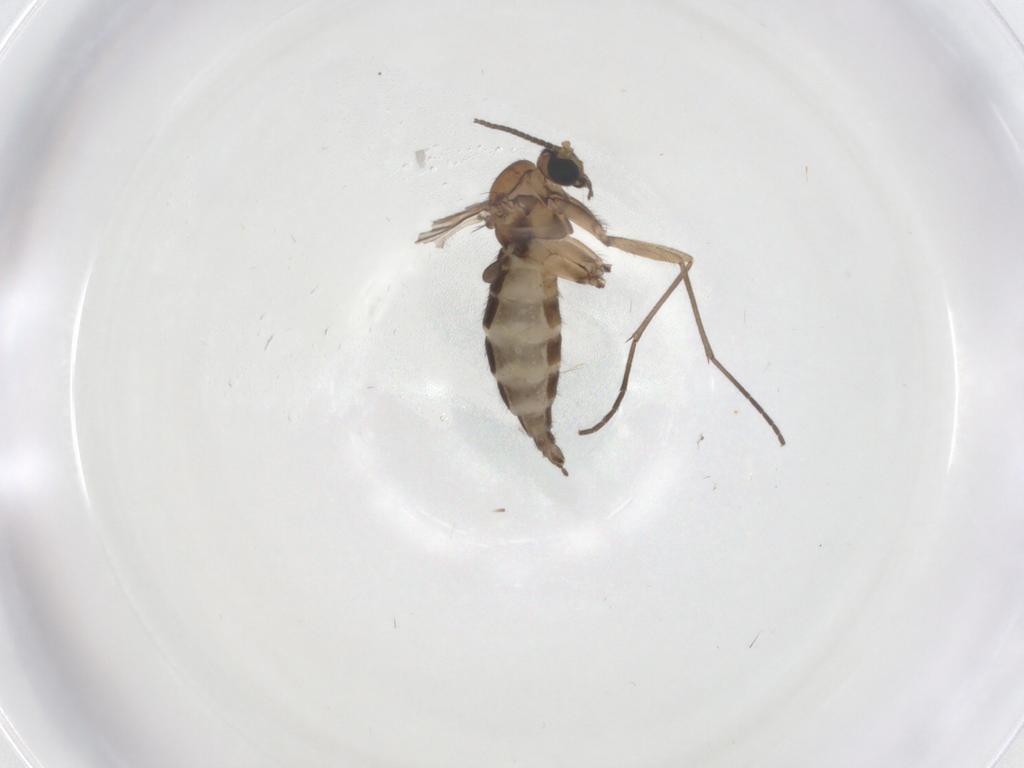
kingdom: Animalia
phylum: Arthropoda
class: Insecta
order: Diptera
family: Sciaridae
